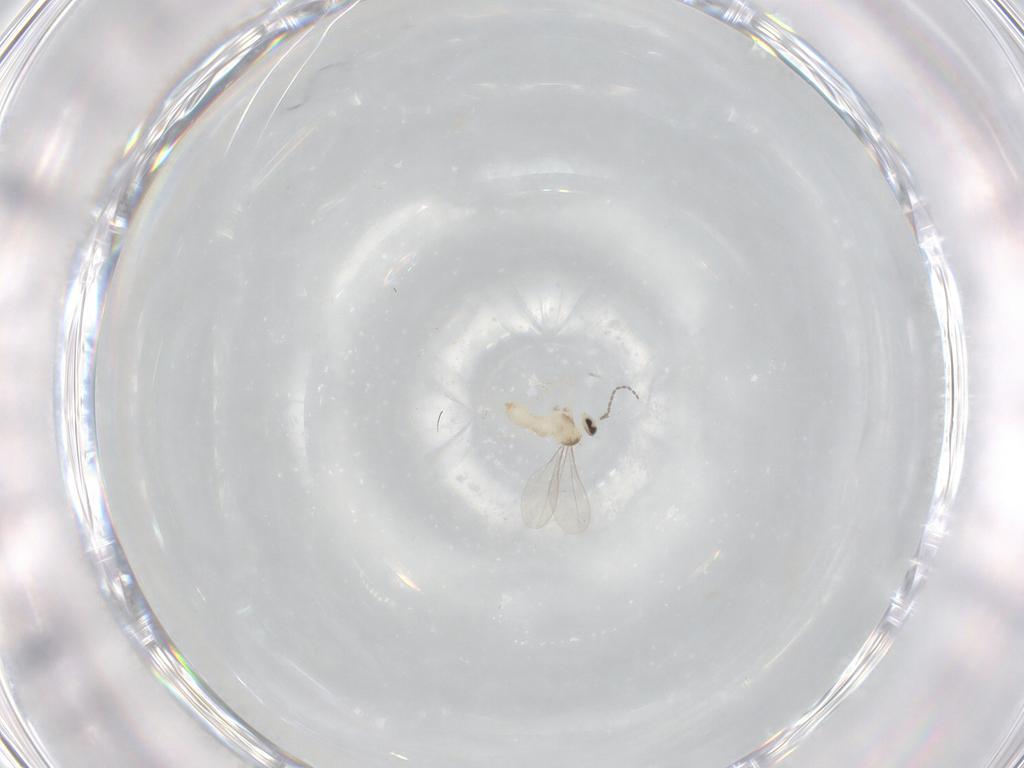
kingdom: Animalia
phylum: Arthropoda
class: Insecta
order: Diptera
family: Cecidomyiidae
